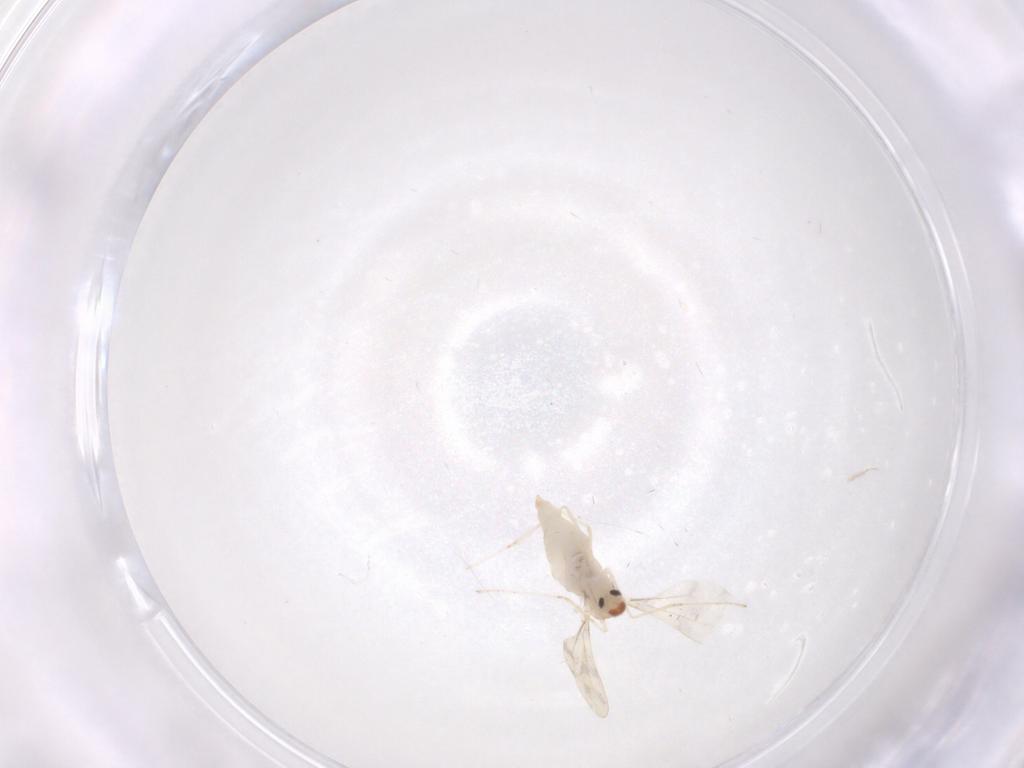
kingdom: Animalia
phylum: Arthropoda
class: Insecta
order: Diptera
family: Cecidomyiidae
